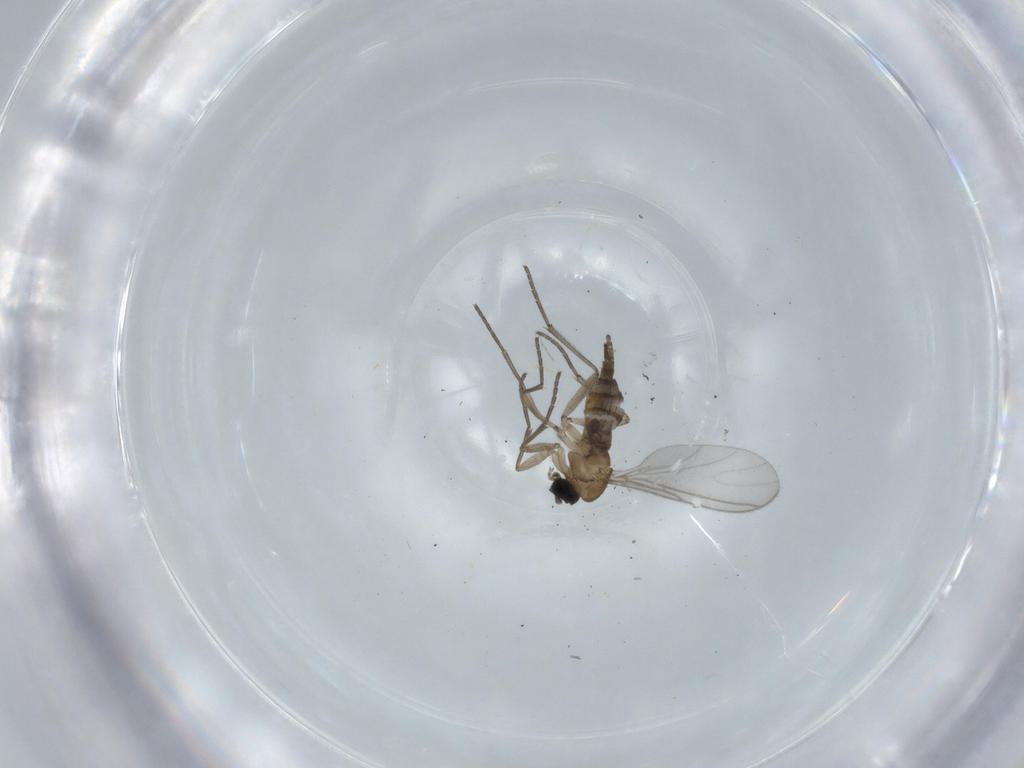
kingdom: Animalia
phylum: Arthropoda
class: Insecta
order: Diptera
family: Sciaridae
